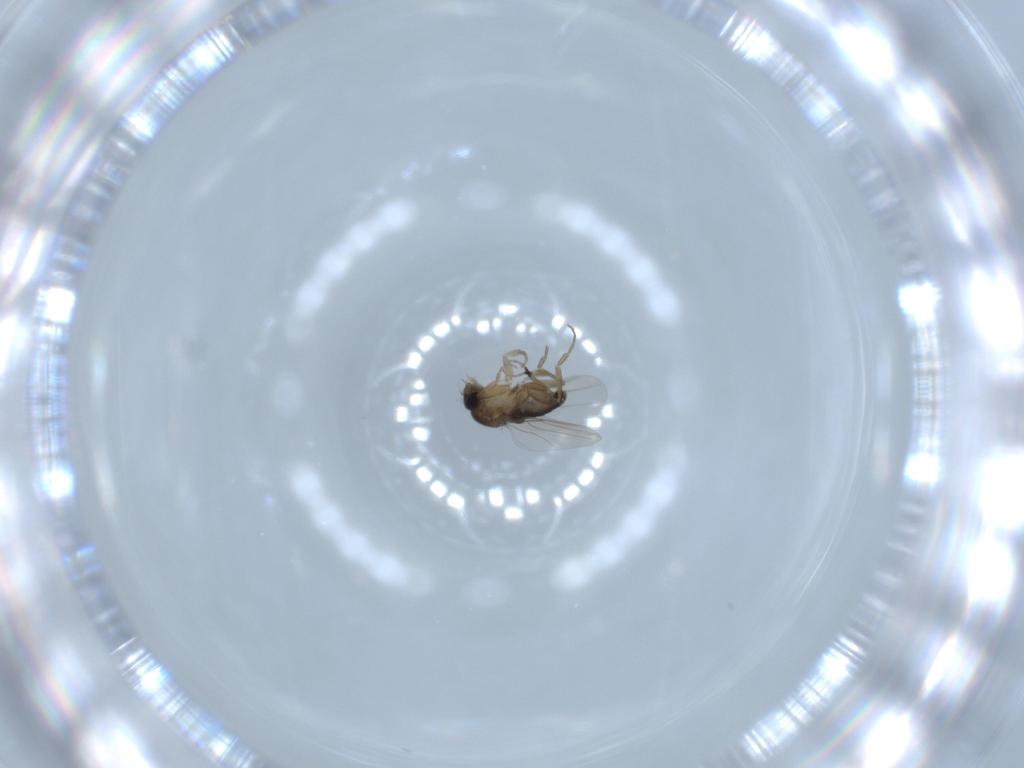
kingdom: Animalia
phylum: Arthropoda
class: Insecta
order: Diptera
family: Phoridae
